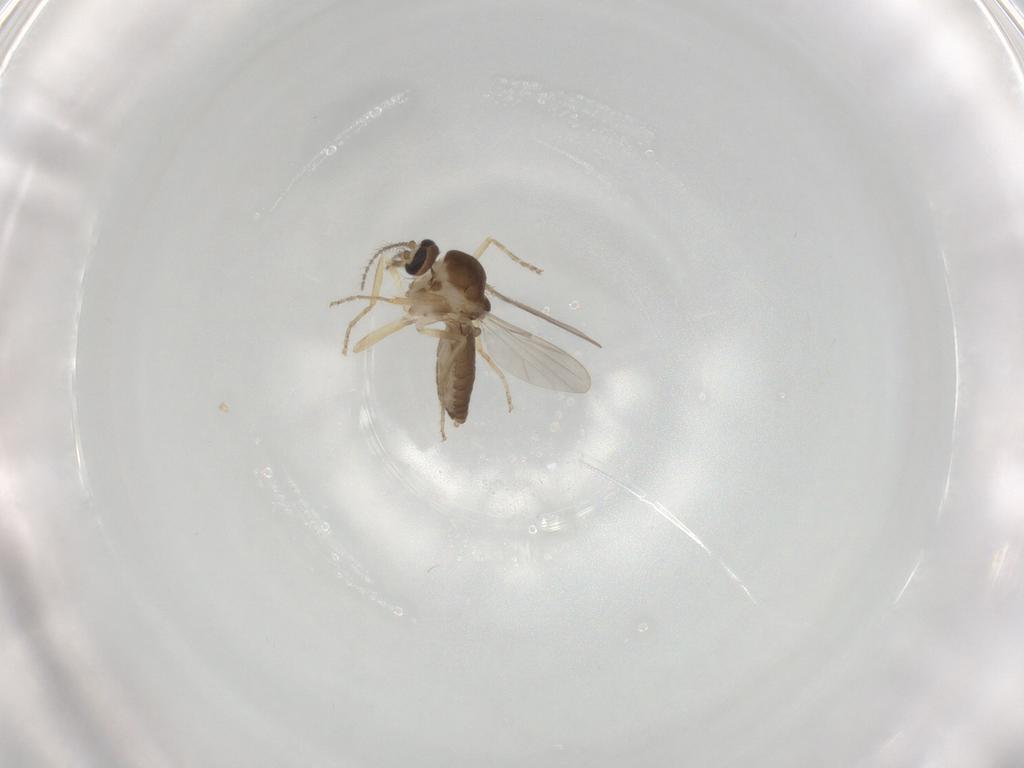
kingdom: Animalia
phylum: Arthropoda
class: Insecta
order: Diptera
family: Ceratopogonidae
